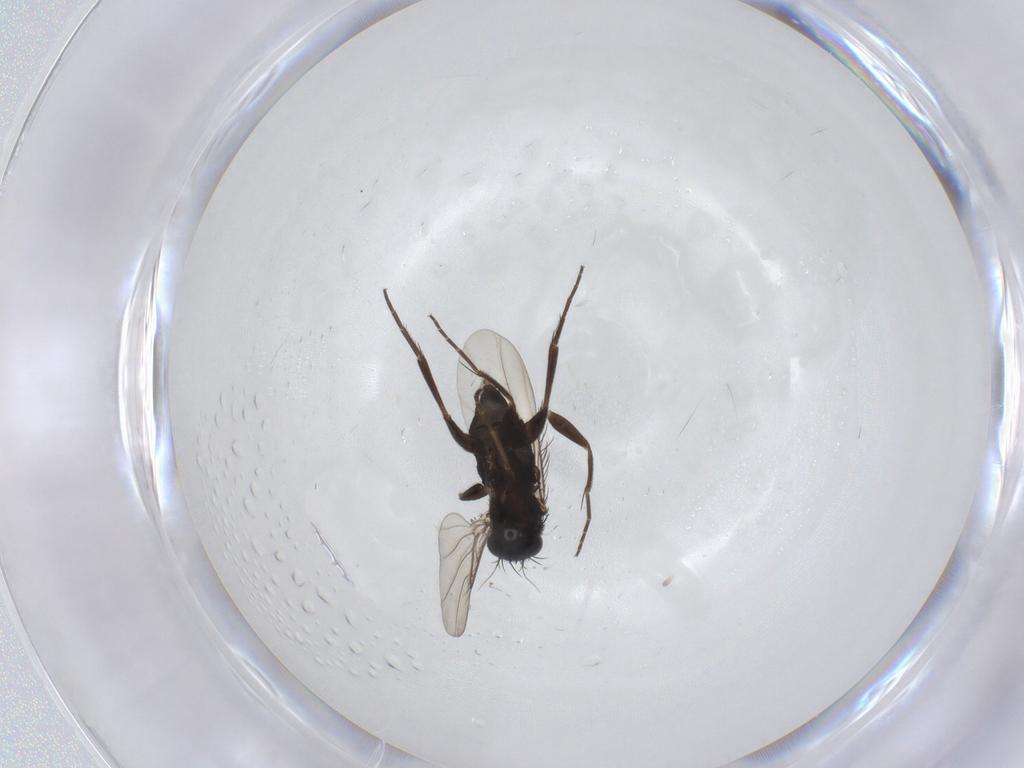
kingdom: Animalia
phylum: Arthropoda
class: Insecta
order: Diptera
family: Phoridae
